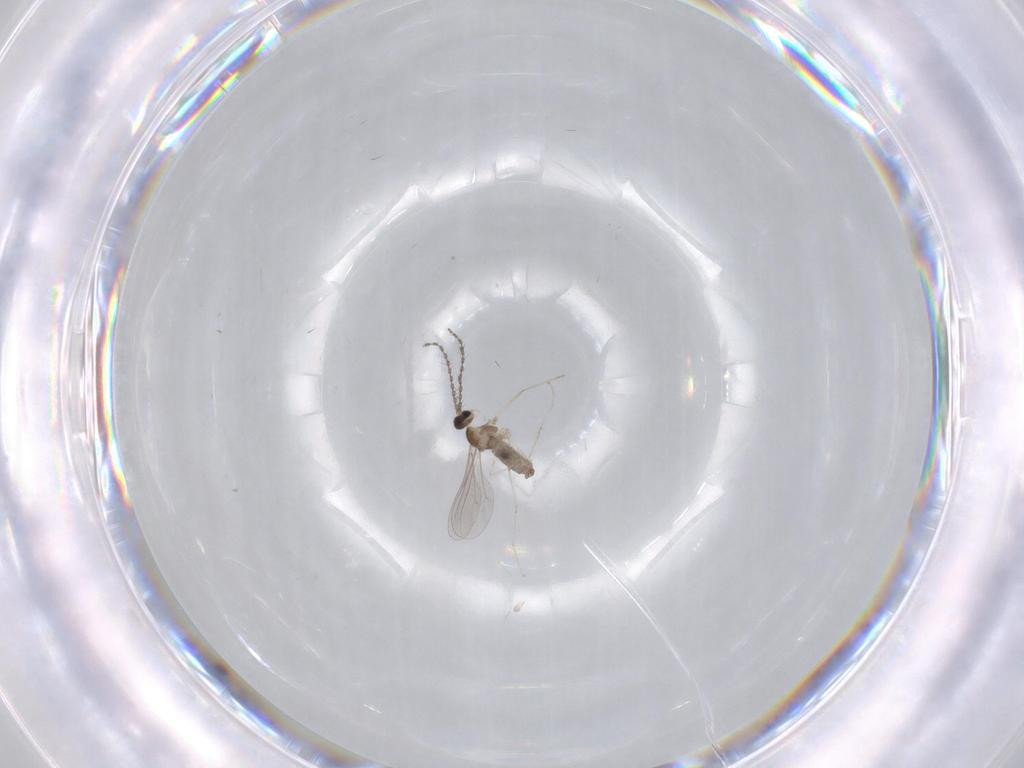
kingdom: Animalia
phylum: Arthropoda
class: Insecta
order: Diptera
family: Chironomidae
